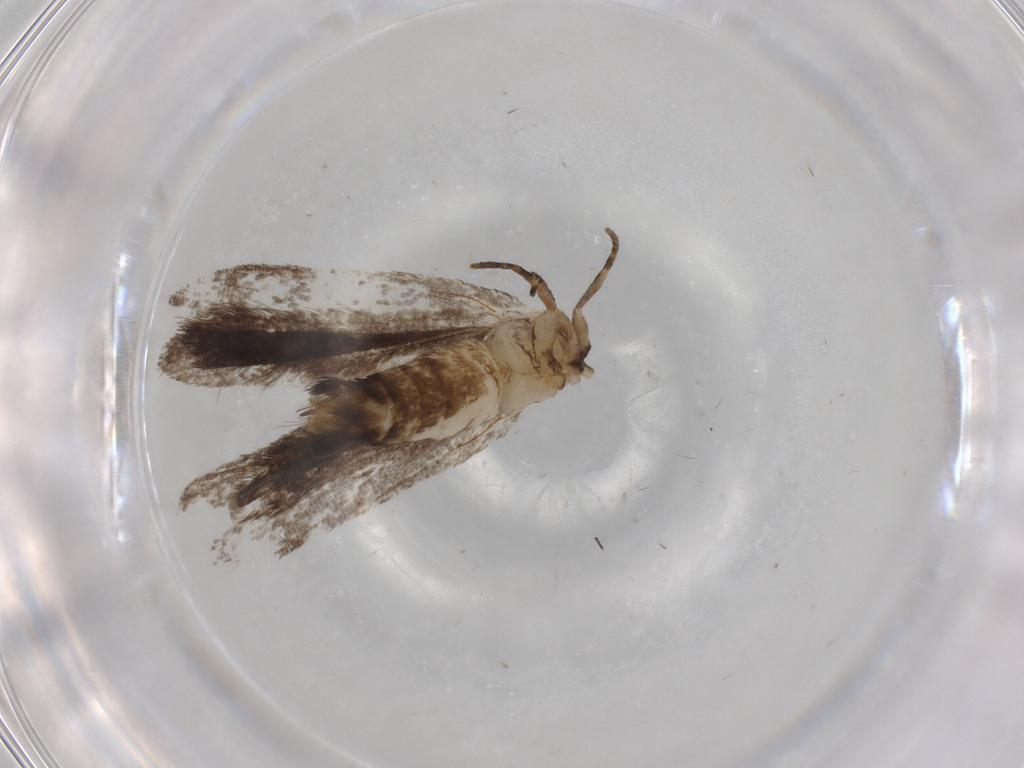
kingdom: Animalia
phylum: Arthropoda
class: Insecta
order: Lepidoptera
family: Gelechiidae
